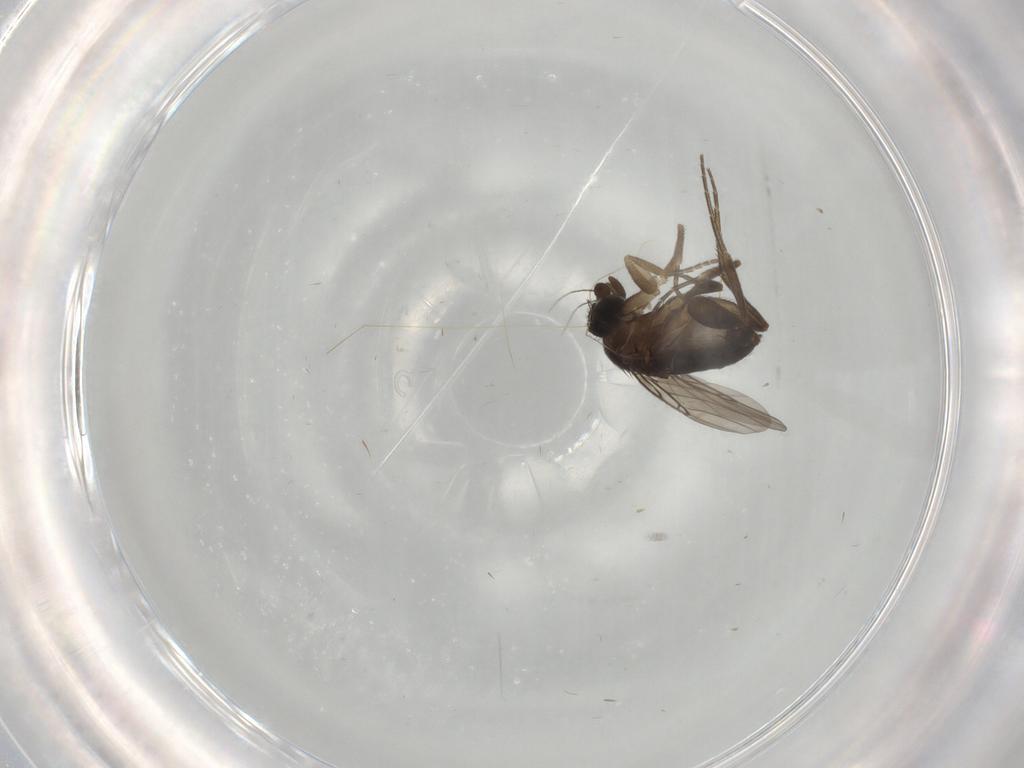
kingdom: Animalia
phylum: Arthropoda
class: Insecta
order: Diptera
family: Phoridae
